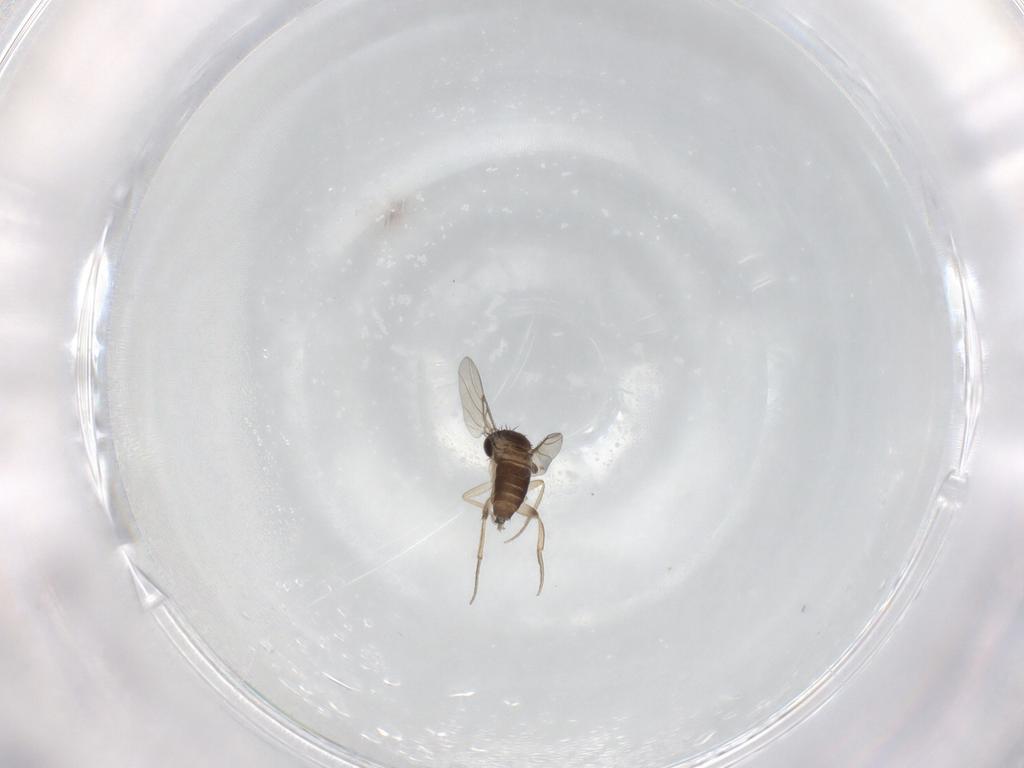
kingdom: Animalia
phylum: Arthropoda
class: Insecta
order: Diptera
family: Phoridae
